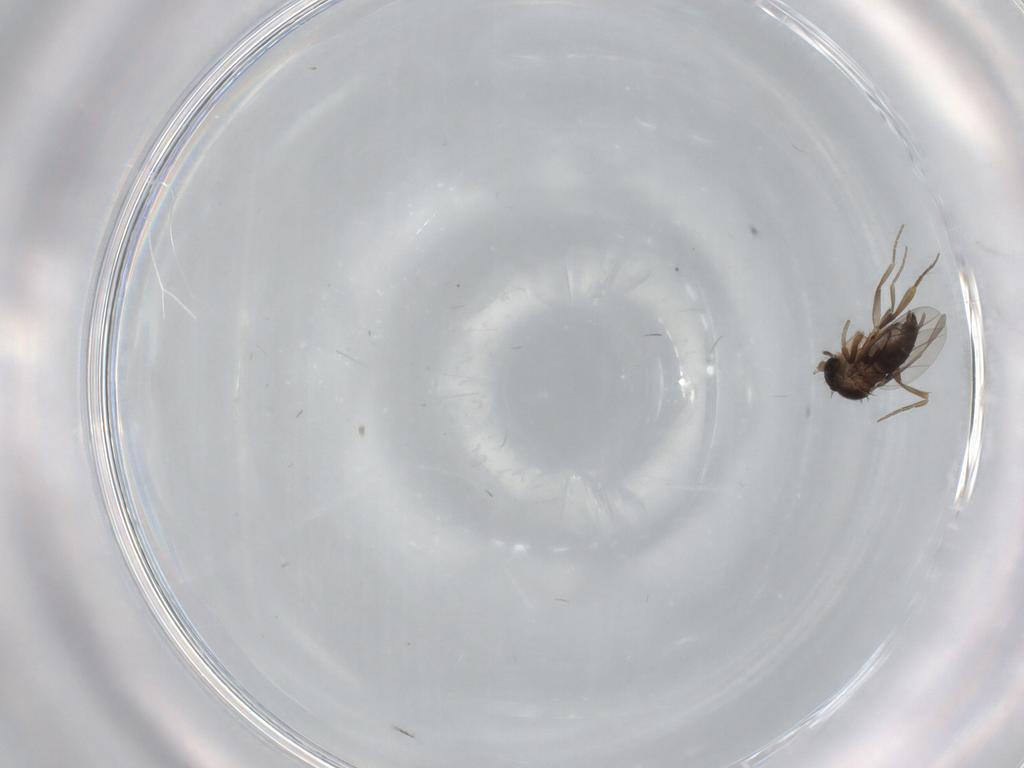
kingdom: Animalia
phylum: Arthropoda
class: Insecta
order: Diptera
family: Phoridae
